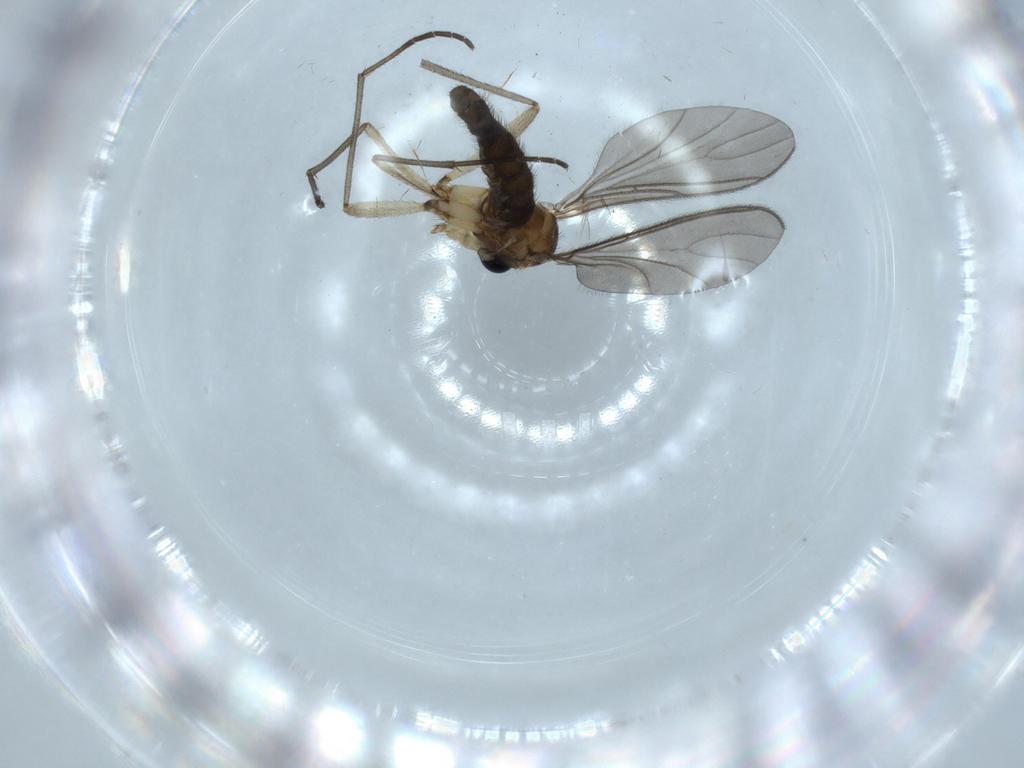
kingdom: Animalia
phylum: Arthropoda
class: Insecta
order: Diptera
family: Sciaridae
